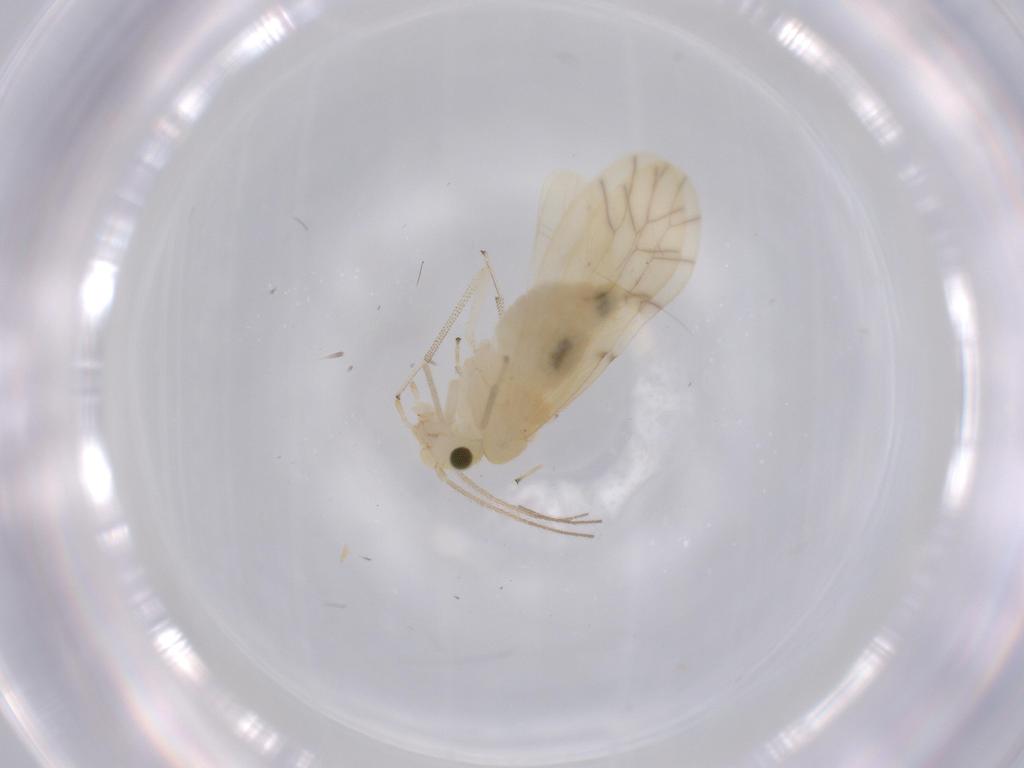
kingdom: Animalia
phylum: Arthropoda
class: Insecta
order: Psocodea
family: Caeciliusidae
